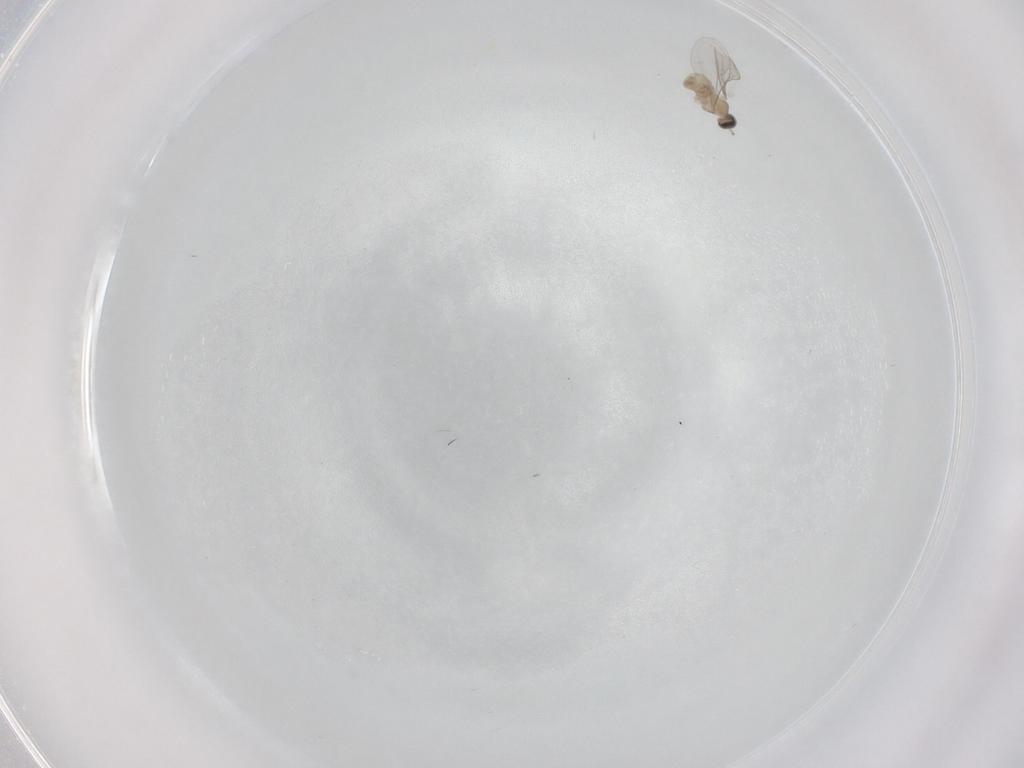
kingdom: Animalia
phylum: Arthropoda
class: Insecta
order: Diptera
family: Cecidomyiidae
